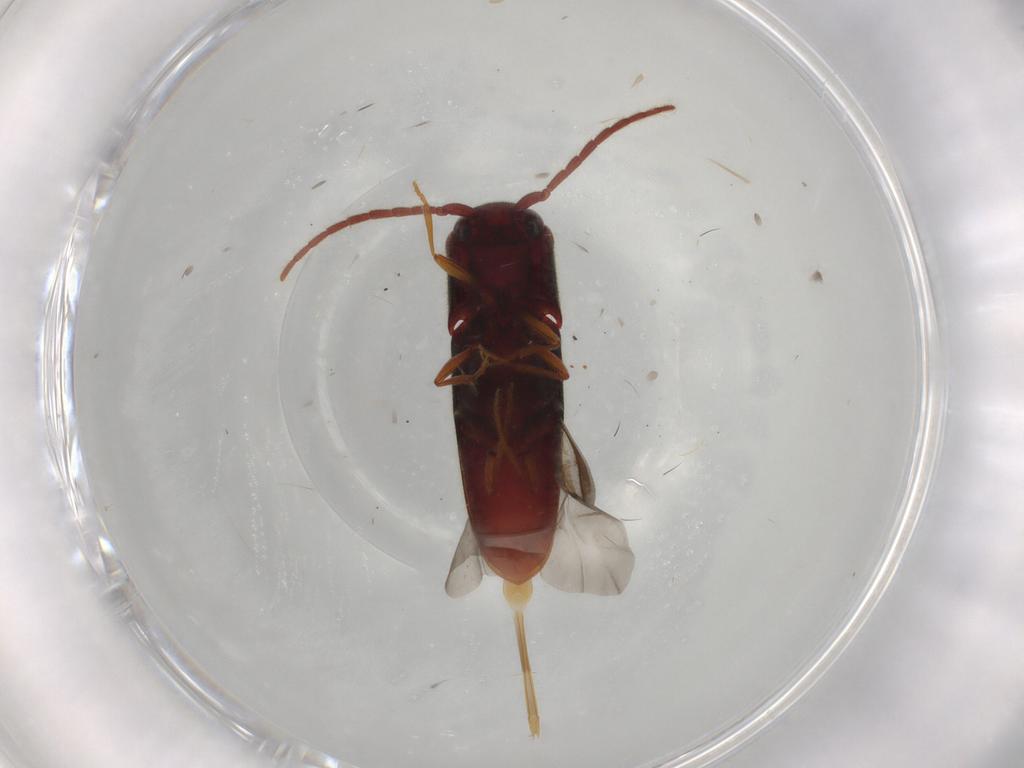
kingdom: Animalia
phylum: Arthropoda
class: Insecta
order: Coleoptera
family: Eucnemidae
